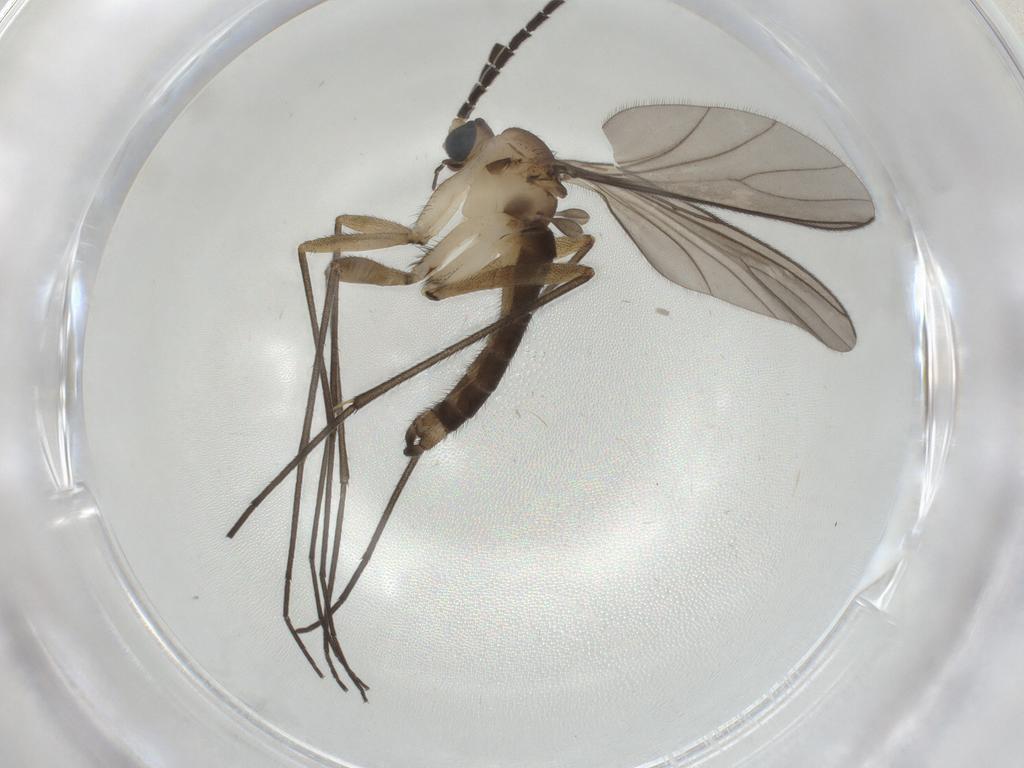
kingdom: Animalia
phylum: Arthropoda
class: Insecta
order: Diptera
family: Sciaridae
